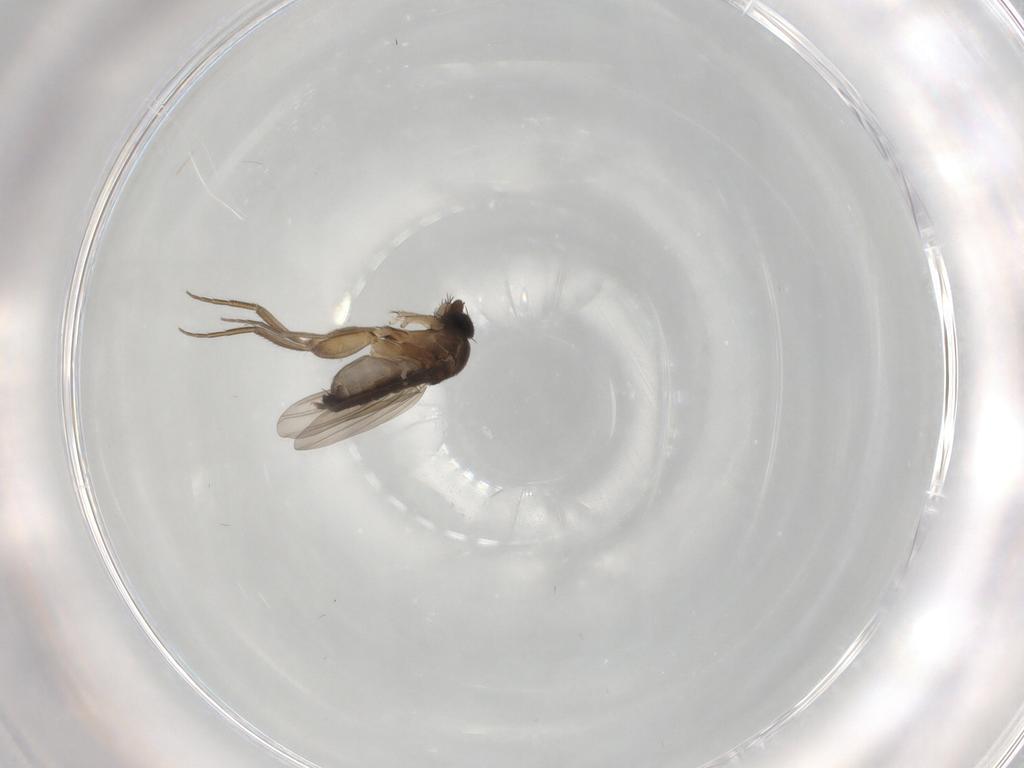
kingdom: Animalia
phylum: Arthropoda
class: Insecta
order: Diptera
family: Phoridae
